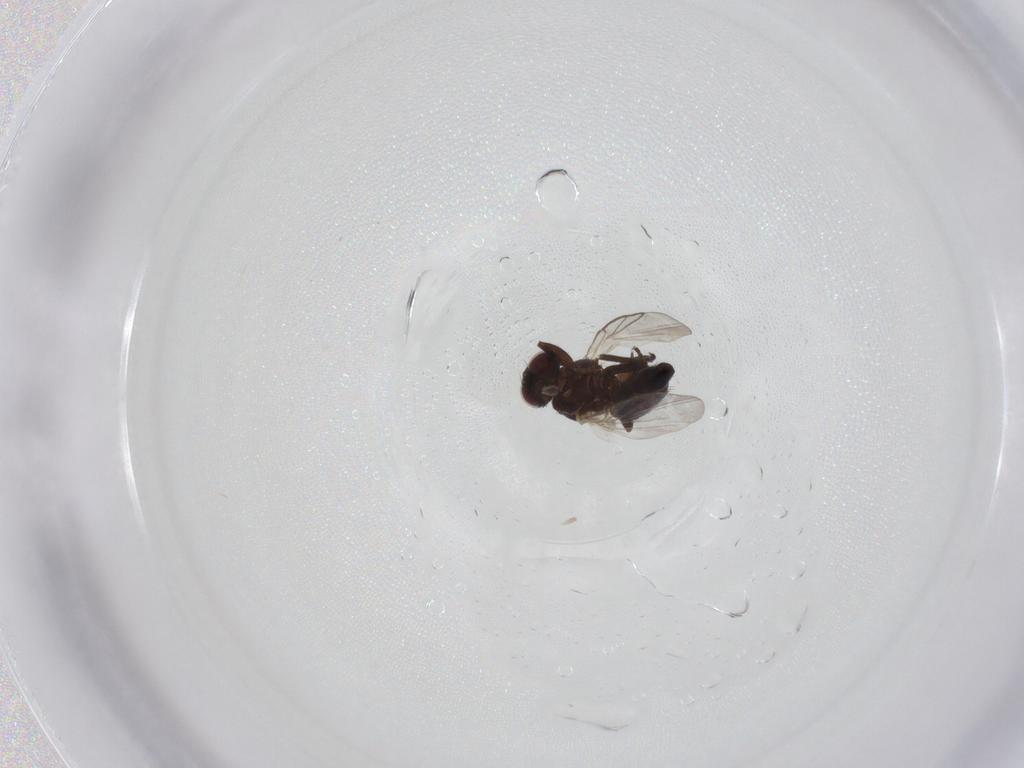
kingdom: Animalia
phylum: Arthropoda
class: Insecta
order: Diptera
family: Agromyzidae
